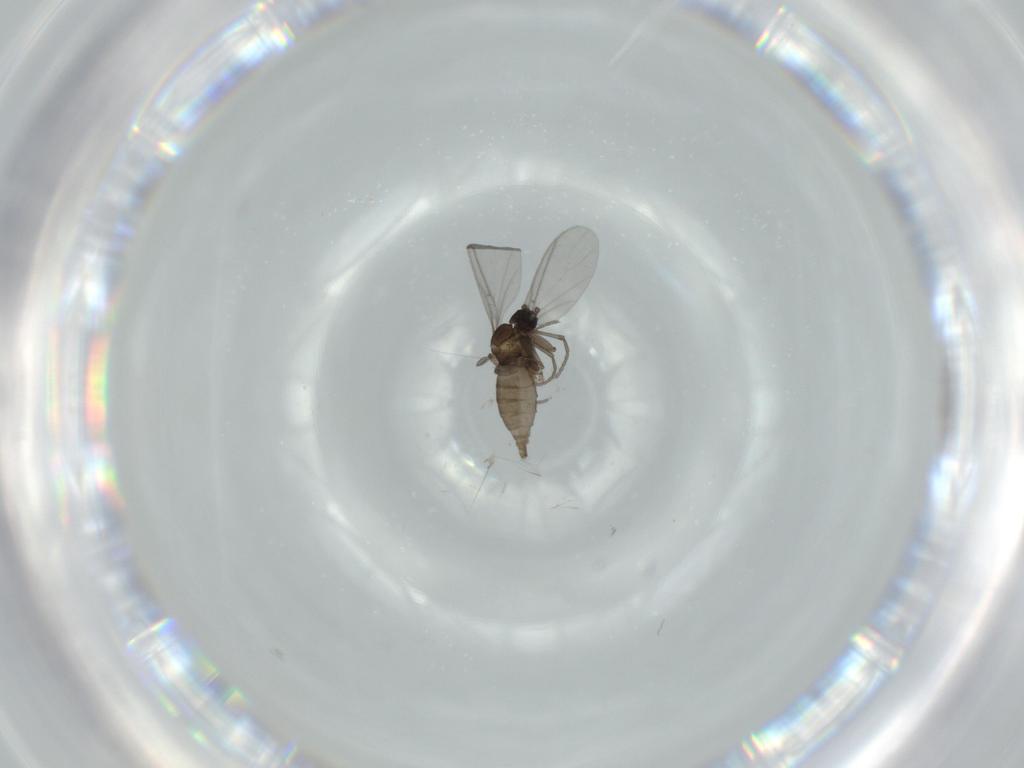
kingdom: Animalia
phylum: Arthropoda
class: Insecta
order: Diptera
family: Sciaridae
